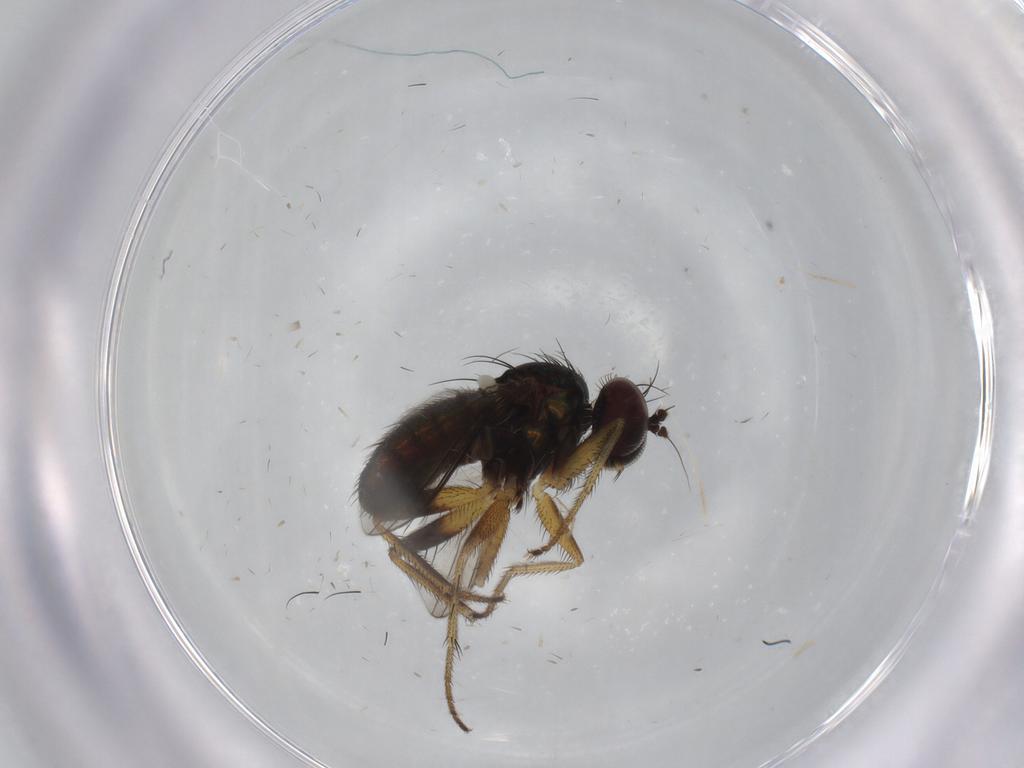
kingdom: Animalia
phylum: Arthropoda
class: Insecta
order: Diptera
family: Dolichopodidae
